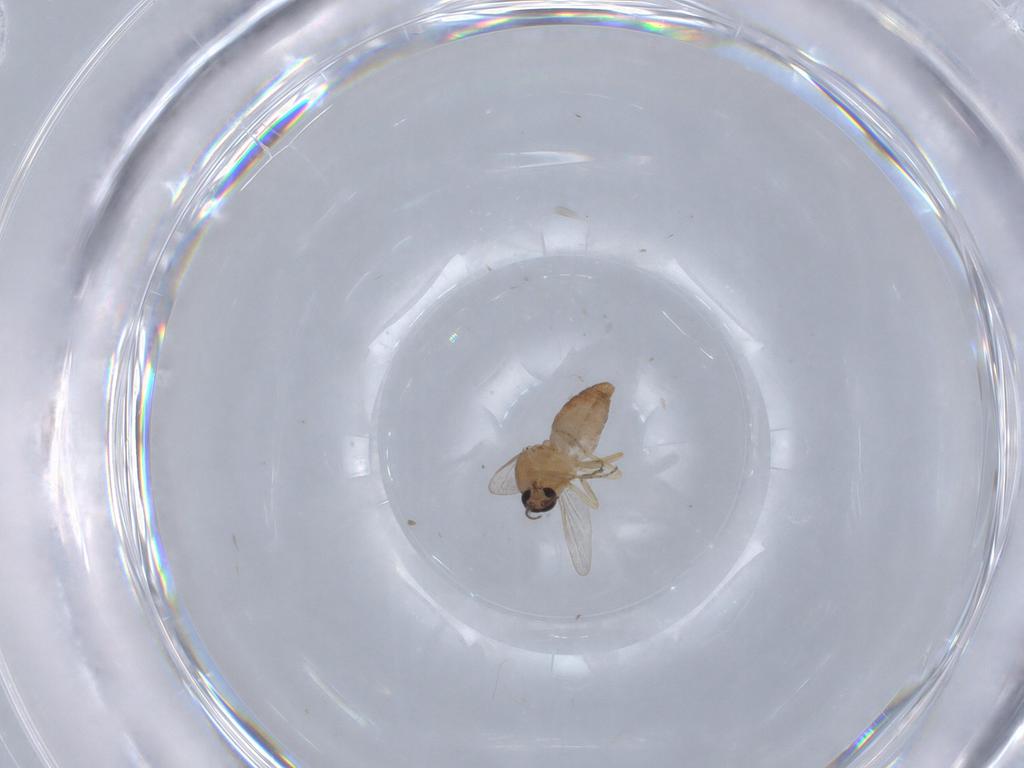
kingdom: Animalia
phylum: Arthropoda
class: Insecta
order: Diptera
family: Ceratopogonidae
